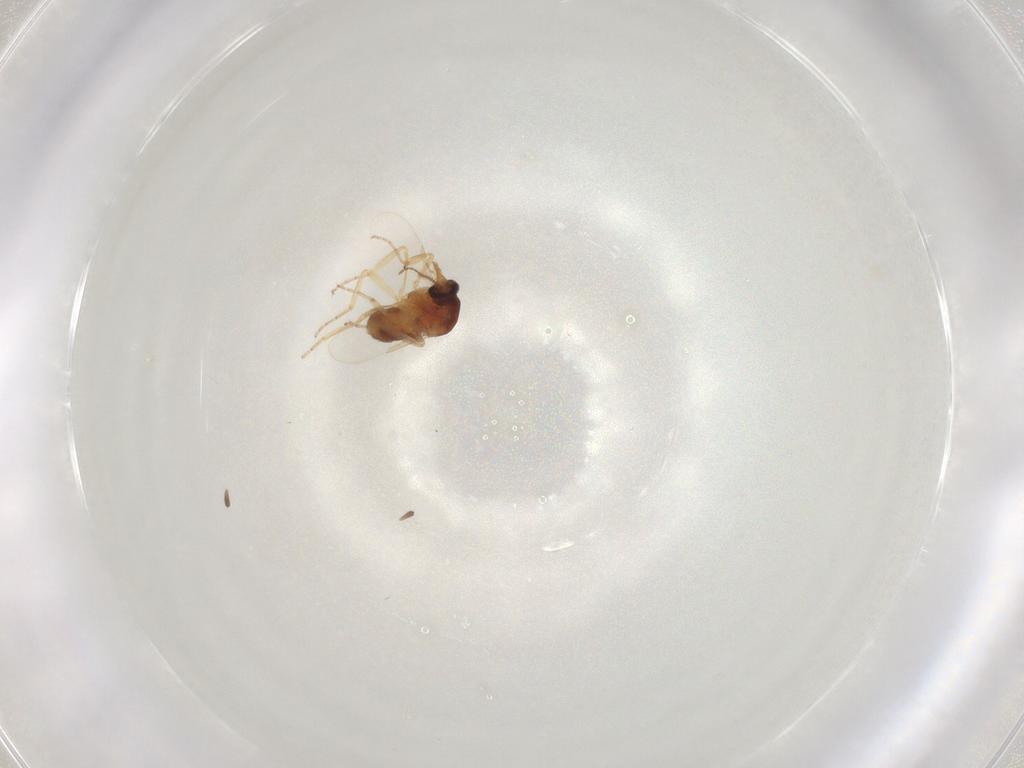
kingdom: Animalia
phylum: Arthropoda
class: Insecta
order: Diptera
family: Ceratopogonidae
